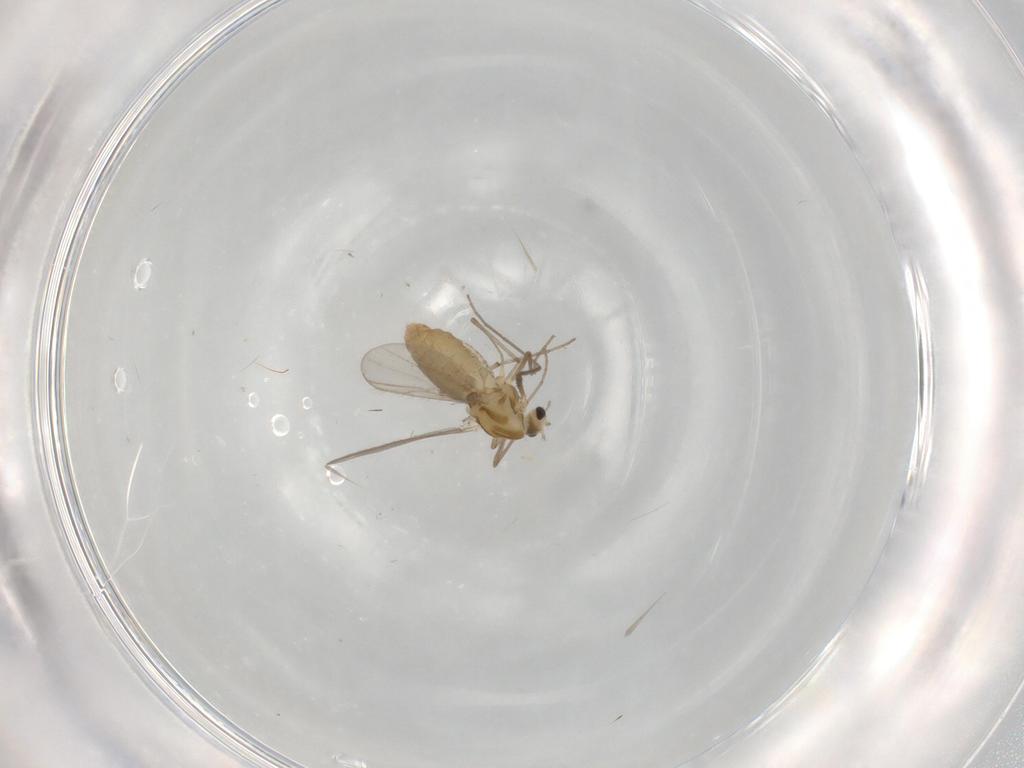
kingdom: Animalia
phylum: Arthropoda
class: Insecta
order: Diptera
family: Chironomidae
